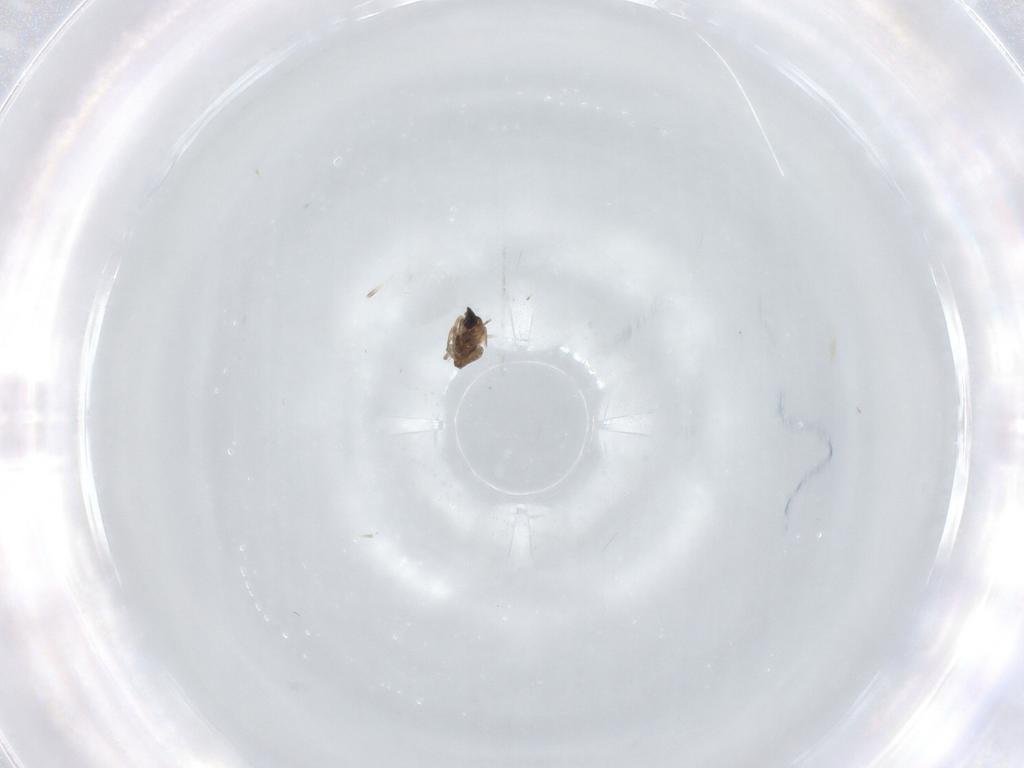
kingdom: Animalia
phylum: Arthropoda
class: Insecta
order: Diptera
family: Cecidomyiidae
